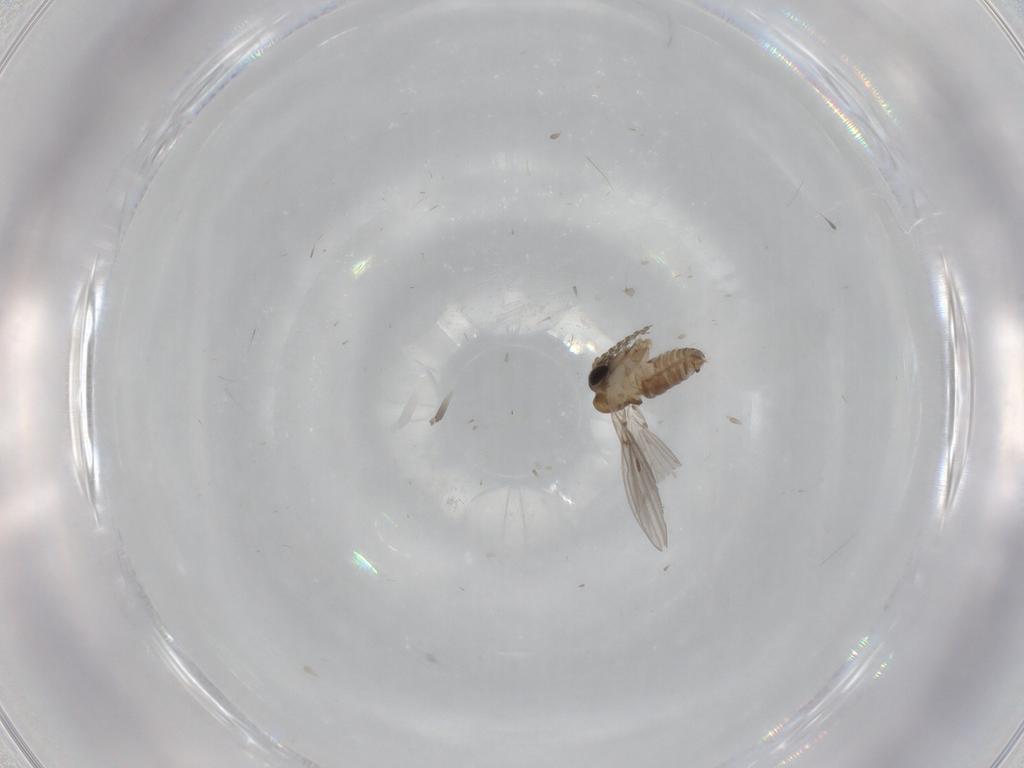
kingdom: Animalia
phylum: Arthropoda
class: Insecta
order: Diptera
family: Psychodidae
